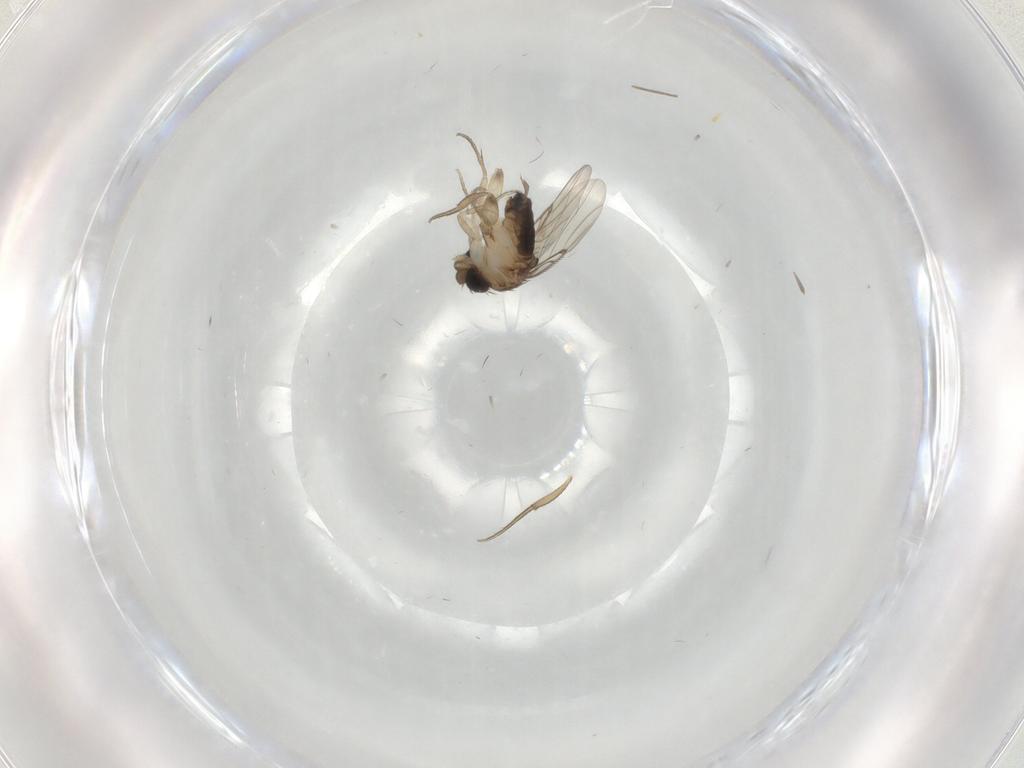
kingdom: Animalia
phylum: Arthropoda
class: Insecta
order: Diptera
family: Chironomidae
